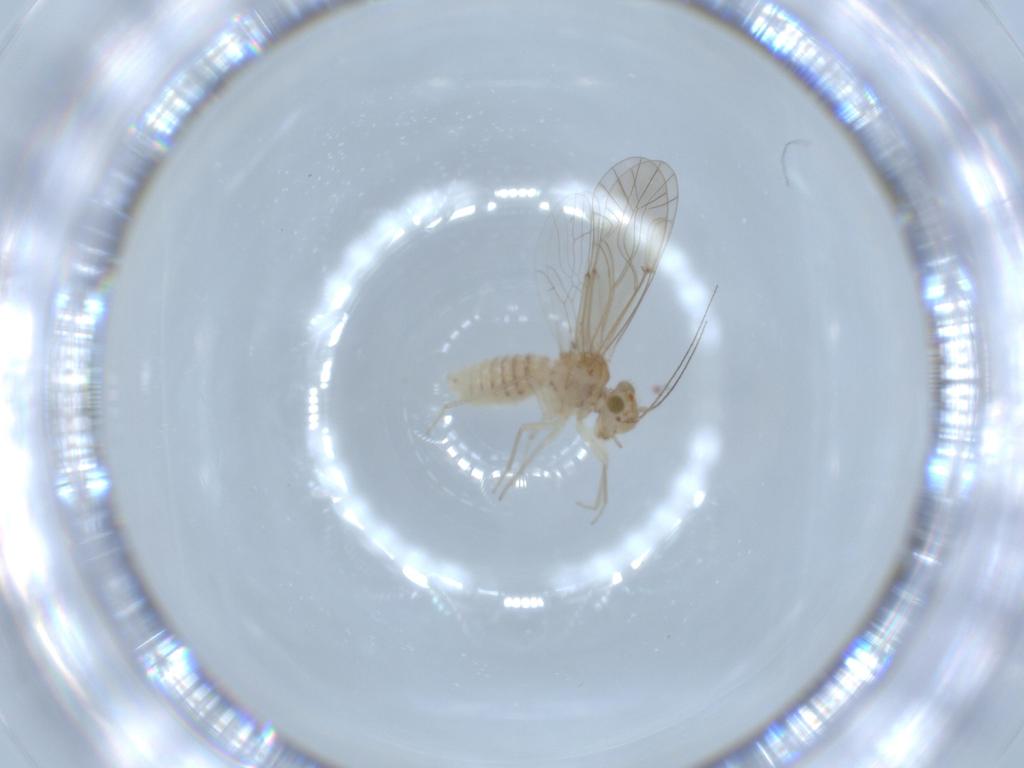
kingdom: Animalia
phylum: Arthropoda
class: Insecta
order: Psocodea
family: Lachesillidae
